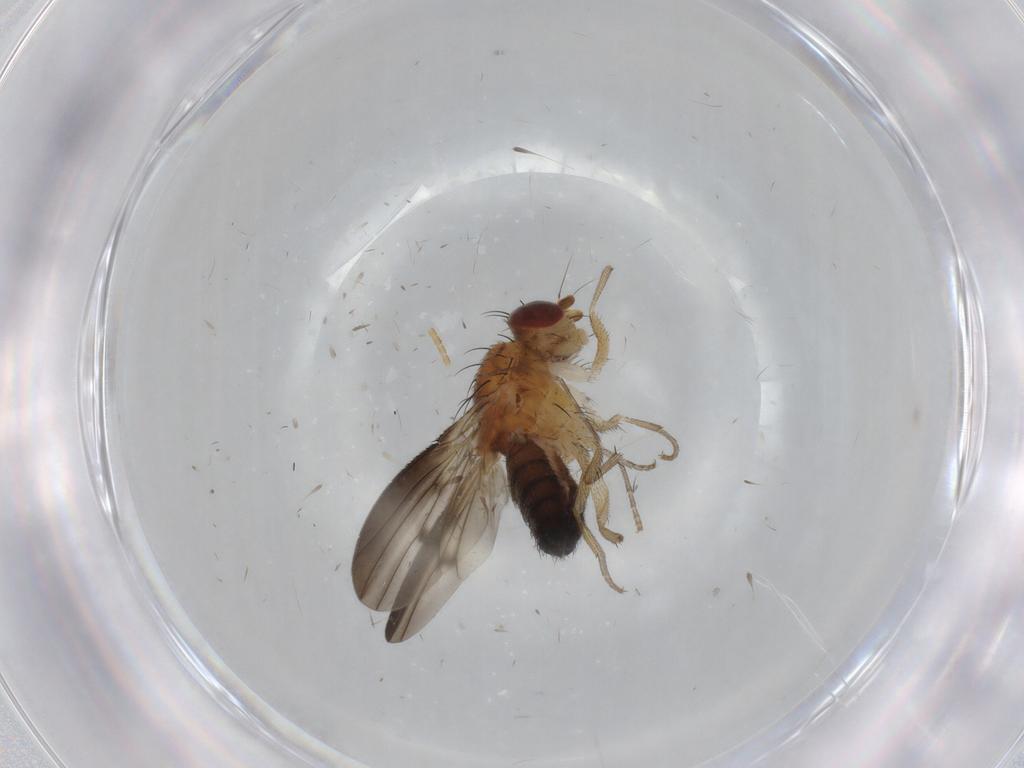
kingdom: Animalia
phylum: Arthropoda
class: Insecta
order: Diptera
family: Heleomyzidae
